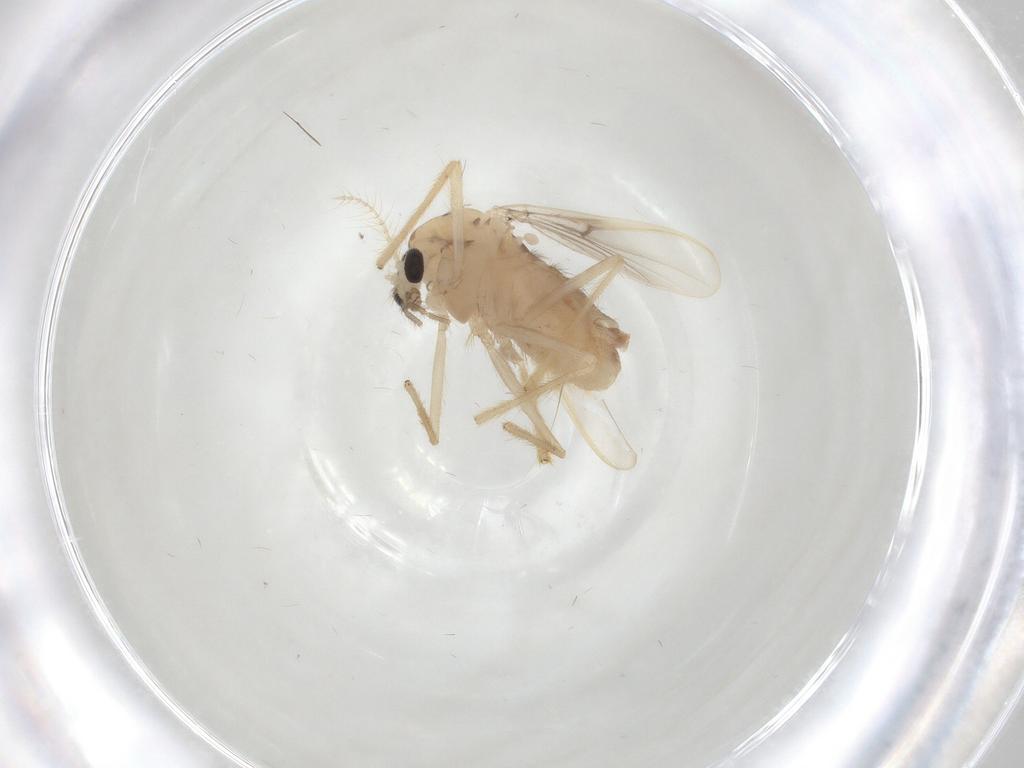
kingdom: Animalia
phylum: Arthropoda
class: Insecta
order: Diptera
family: Chironomidae
